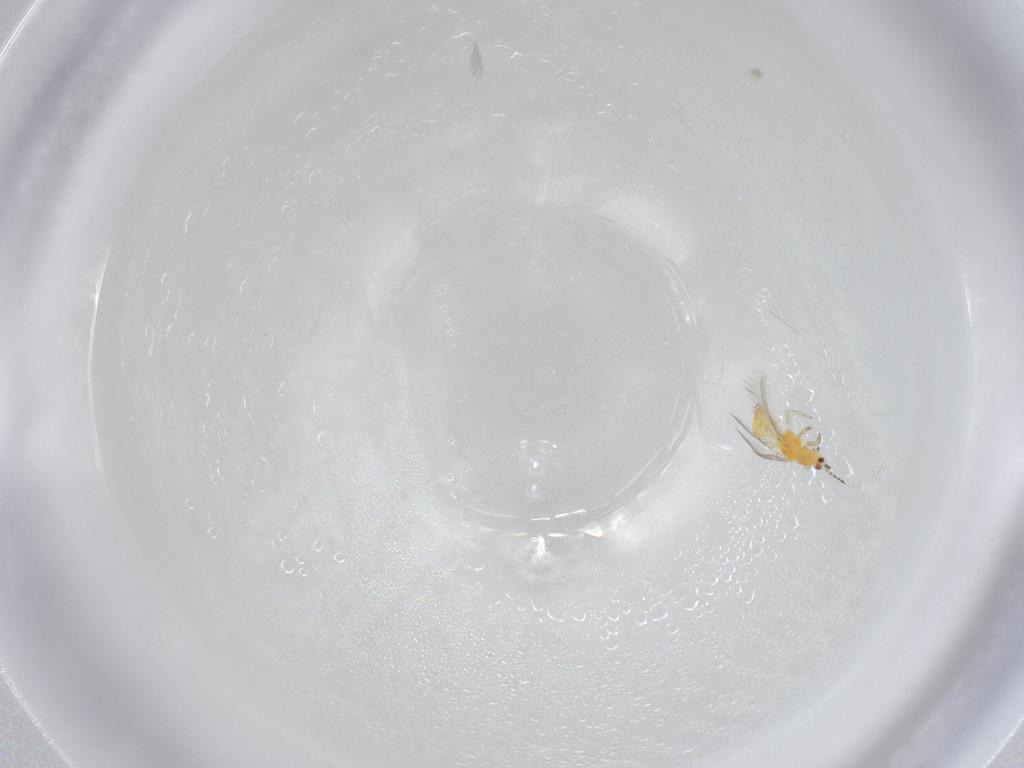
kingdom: Animalia
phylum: Arthropoda
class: Insecta
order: Thysanoptera
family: Thripidae
